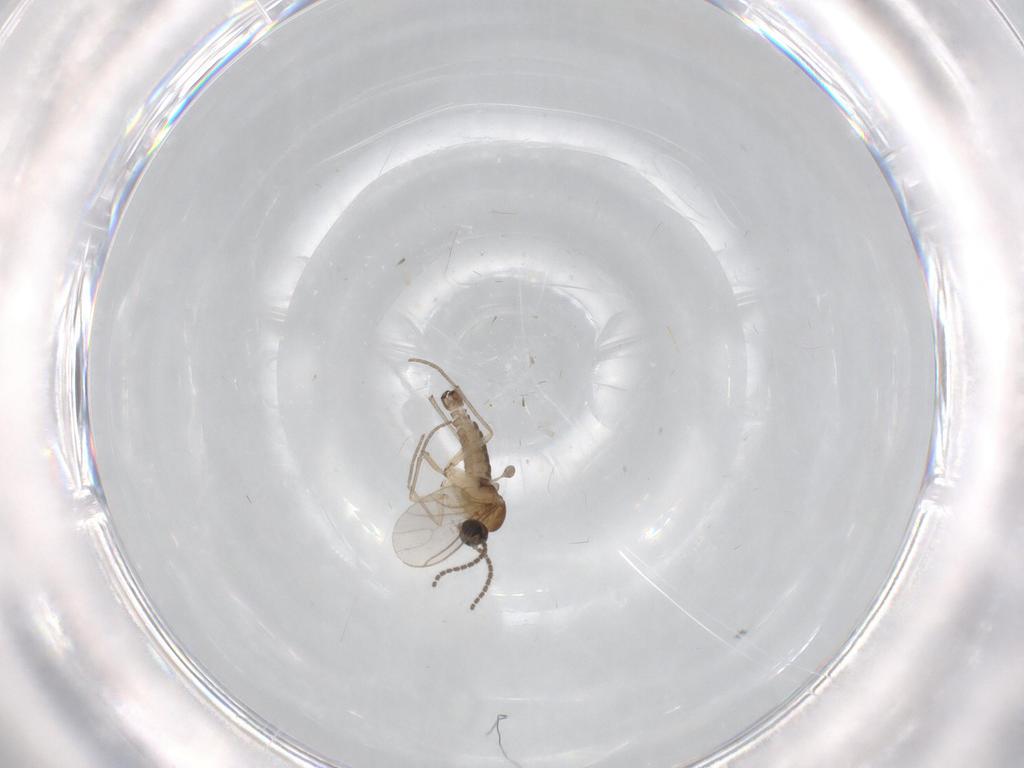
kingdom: Animalia
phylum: Arthropoda
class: Insecta
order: Diptera
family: Sciaridae
